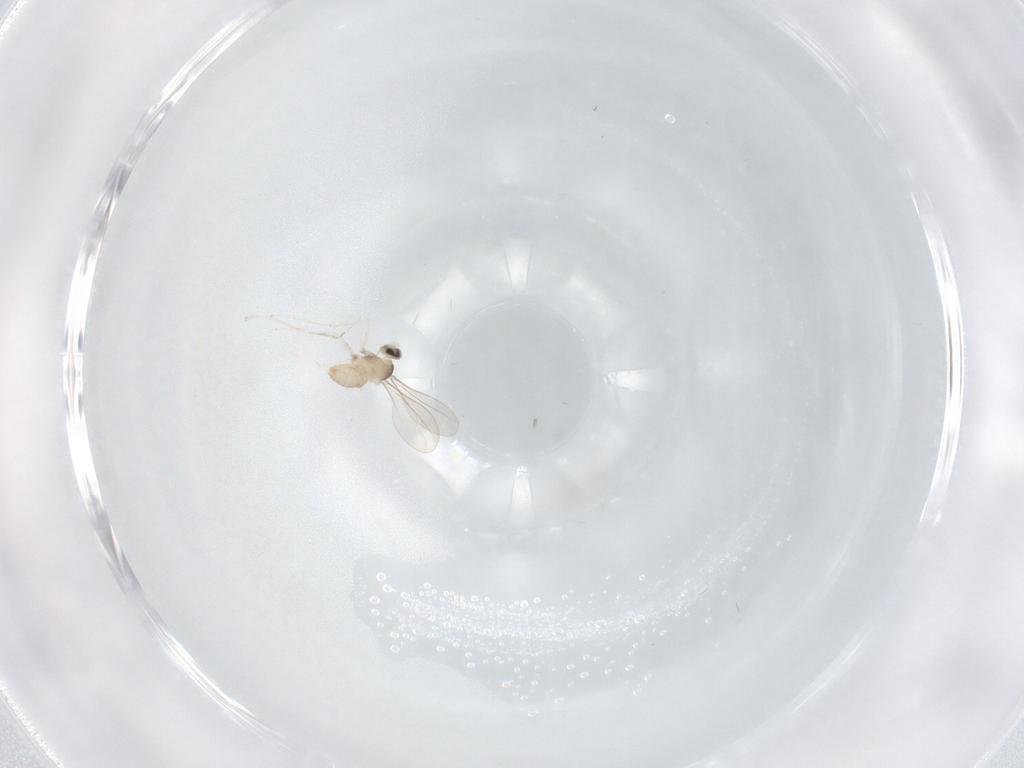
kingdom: Animalia
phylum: Arthropoda
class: Insecta
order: Diptera
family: Cecidomyiidae
